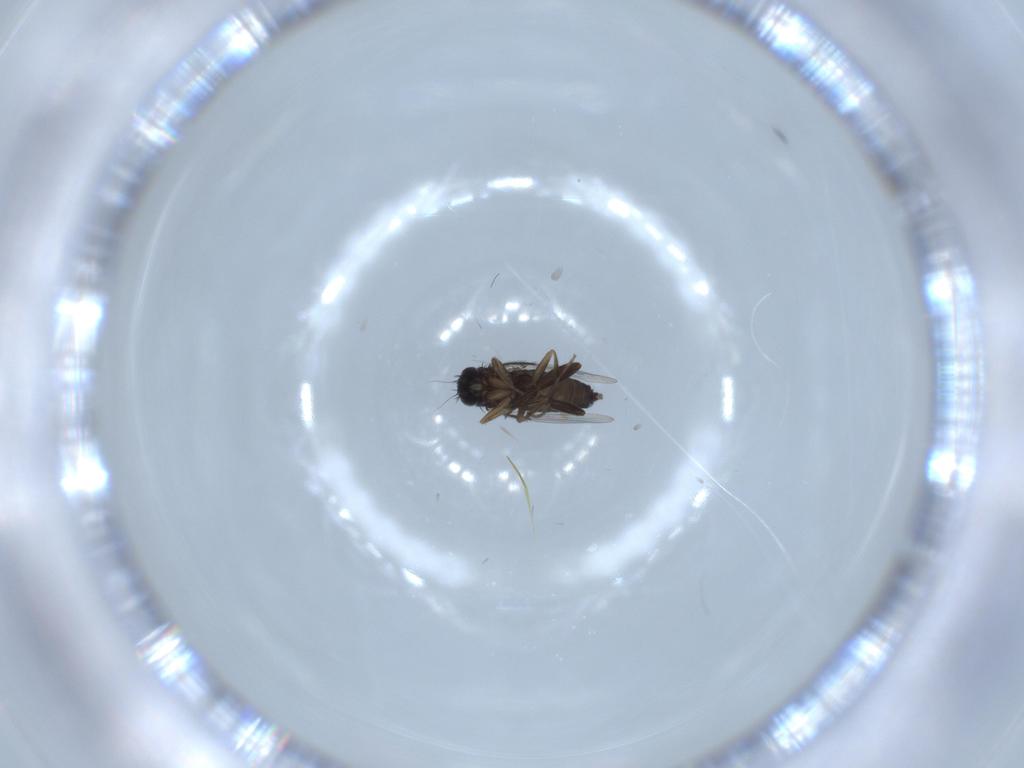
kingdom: Animalia
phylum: Arthropoda
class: Insecta
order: Diptera
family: Phoridae
